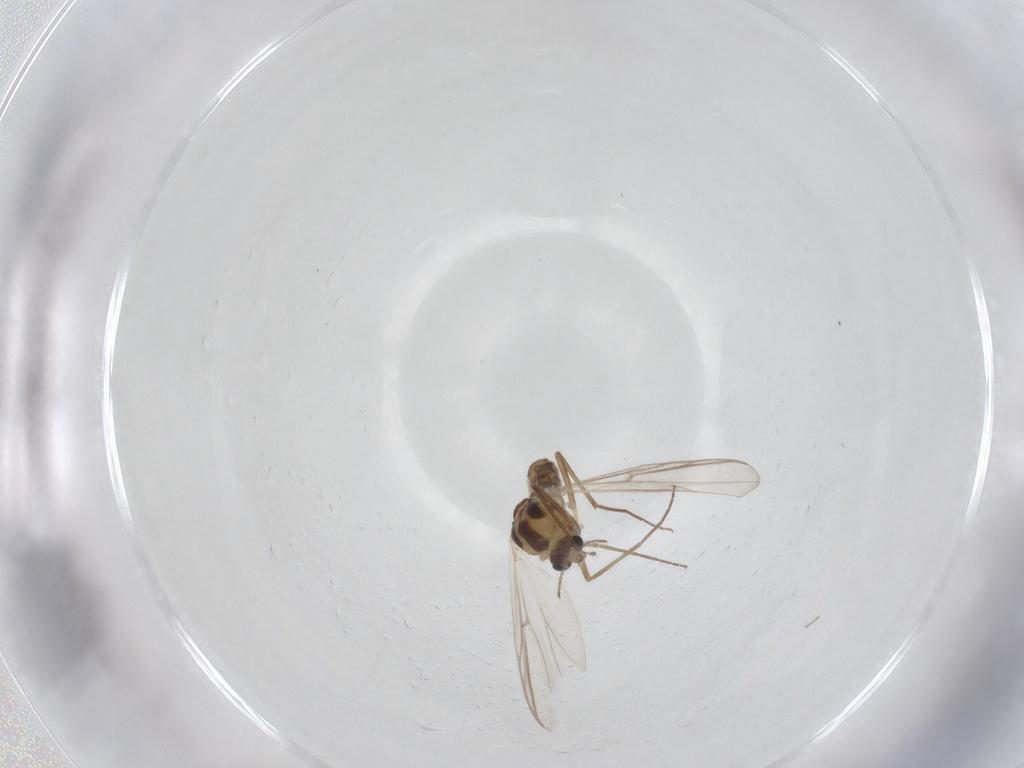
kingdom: Animalia
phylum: Arthropoda
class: Insecta
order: Diptera
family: Chironomidae
